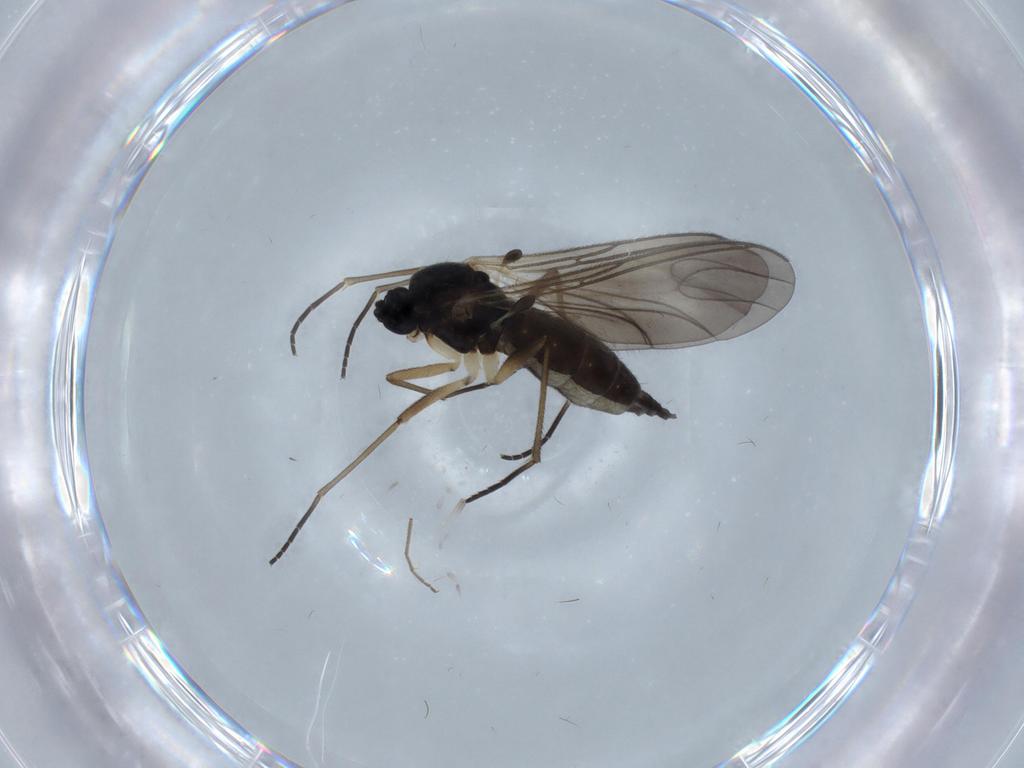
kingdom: Animalia
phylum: Arthropoda
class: Insecta
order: Diptera
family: Sciaridae
